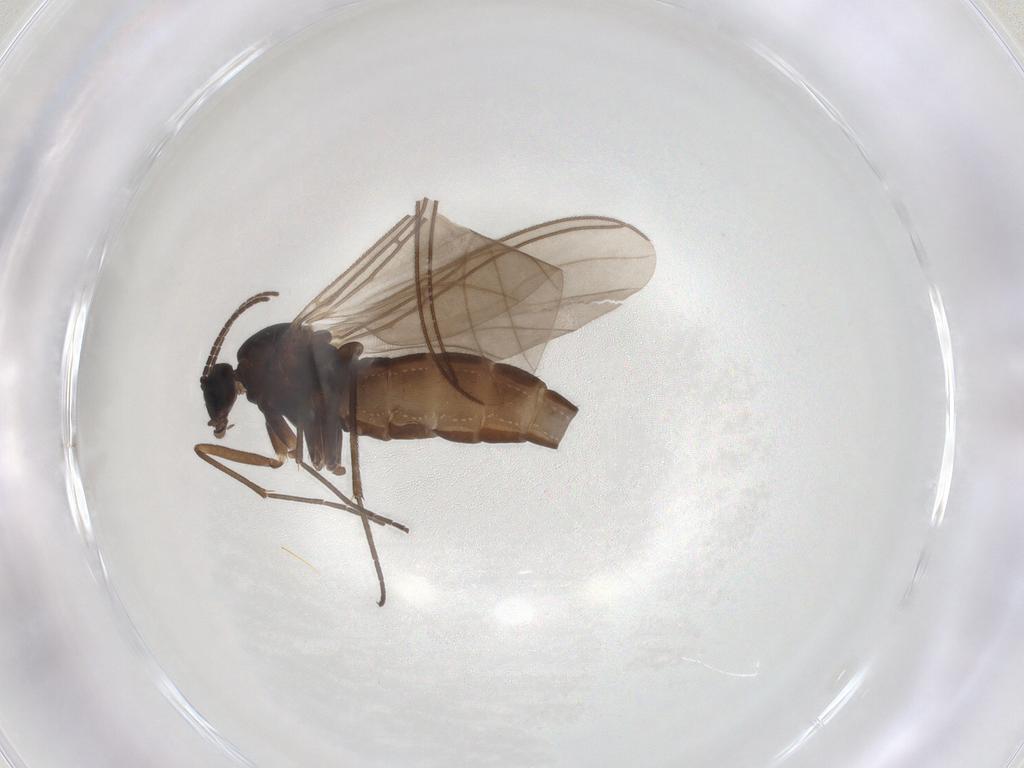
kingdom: Animalia
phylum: Arthropoda
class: Insecta
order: Diptera
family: Sciaridae
